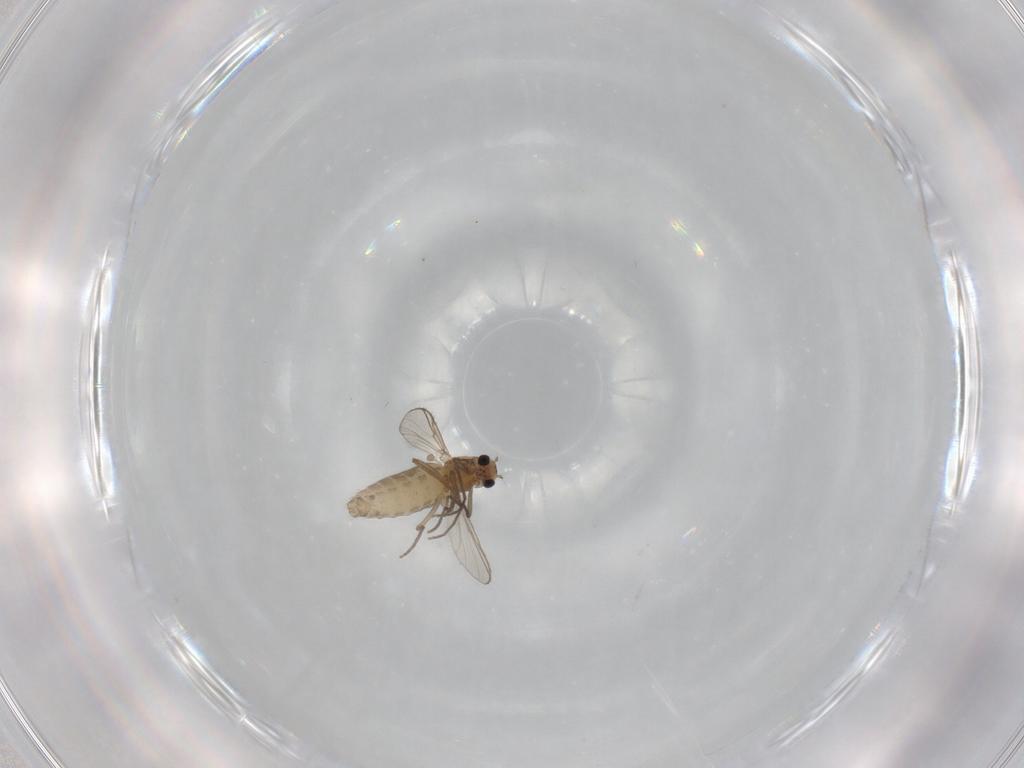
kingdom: Animalia
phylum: Arthropoda
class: Insecta
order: Diptera
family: Chironomidae
